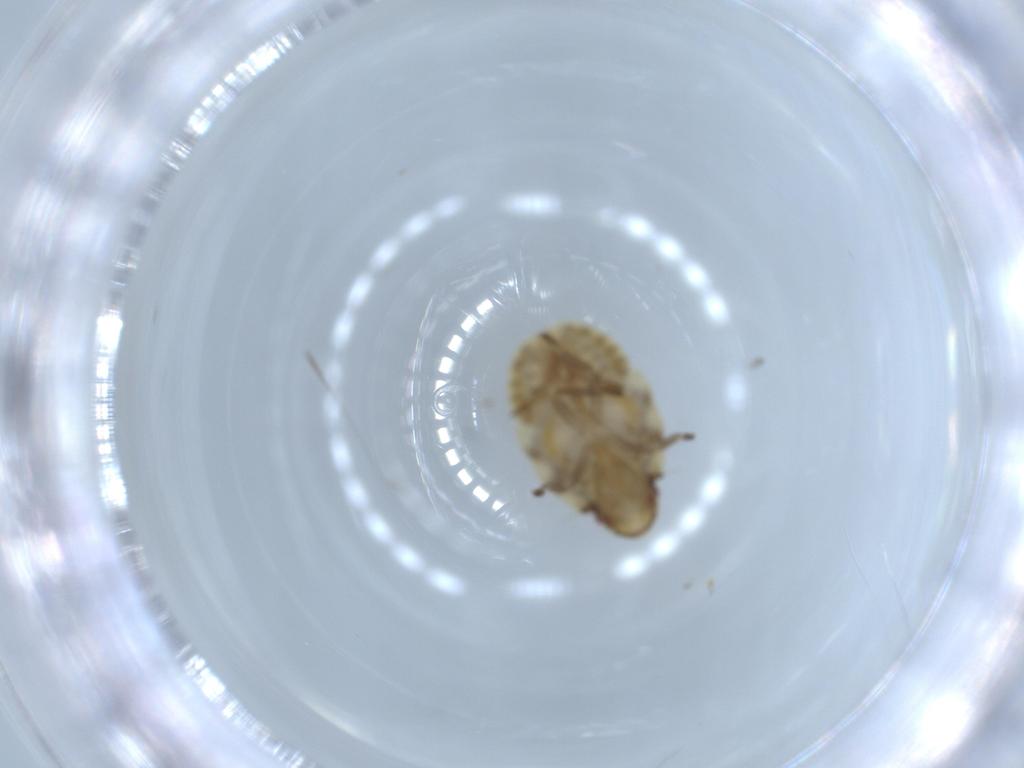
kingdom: Animalia
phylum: Arthropoda
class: Insecta
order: Hemiptera
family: Flatidae
